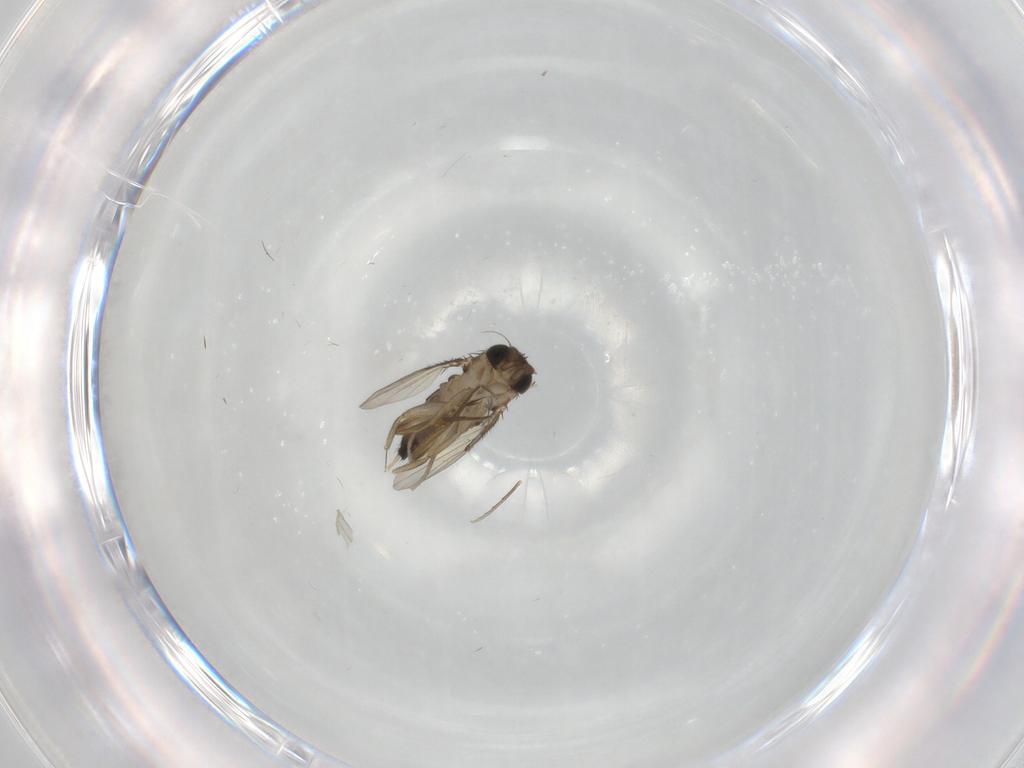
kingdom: Animalia
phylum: Arthropoda
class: Insecta
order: Diptera
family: Phoridae
